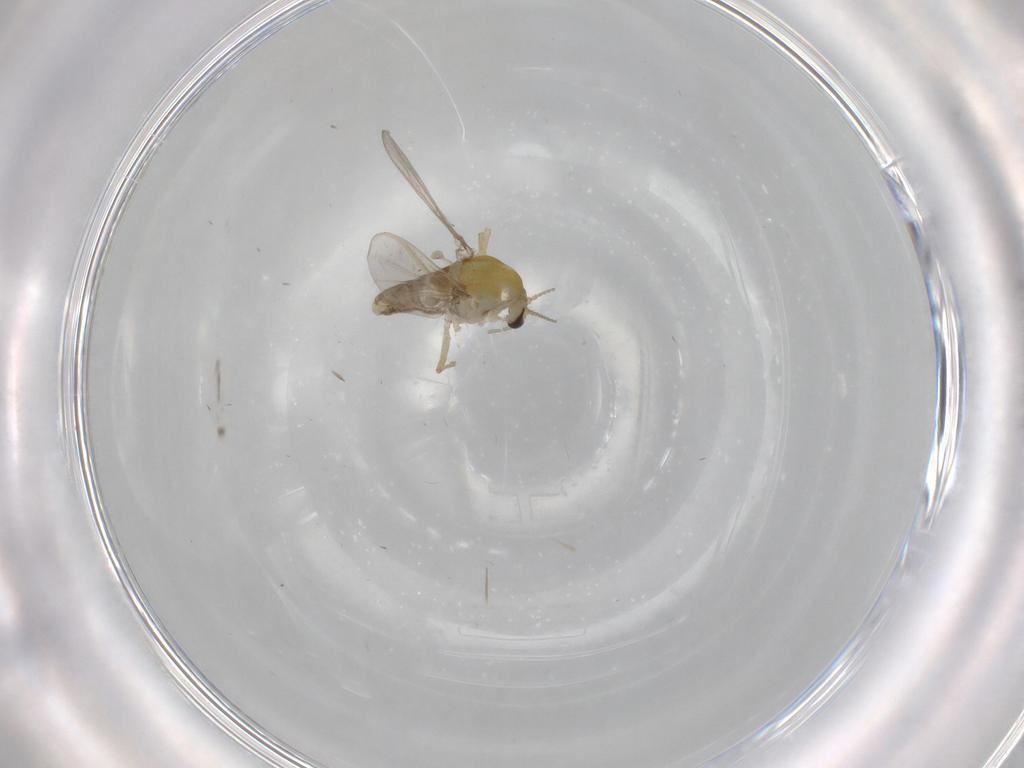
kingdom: Animalia
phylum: Arthropoda
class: Insecta
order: Diptera
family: Chironomidae
